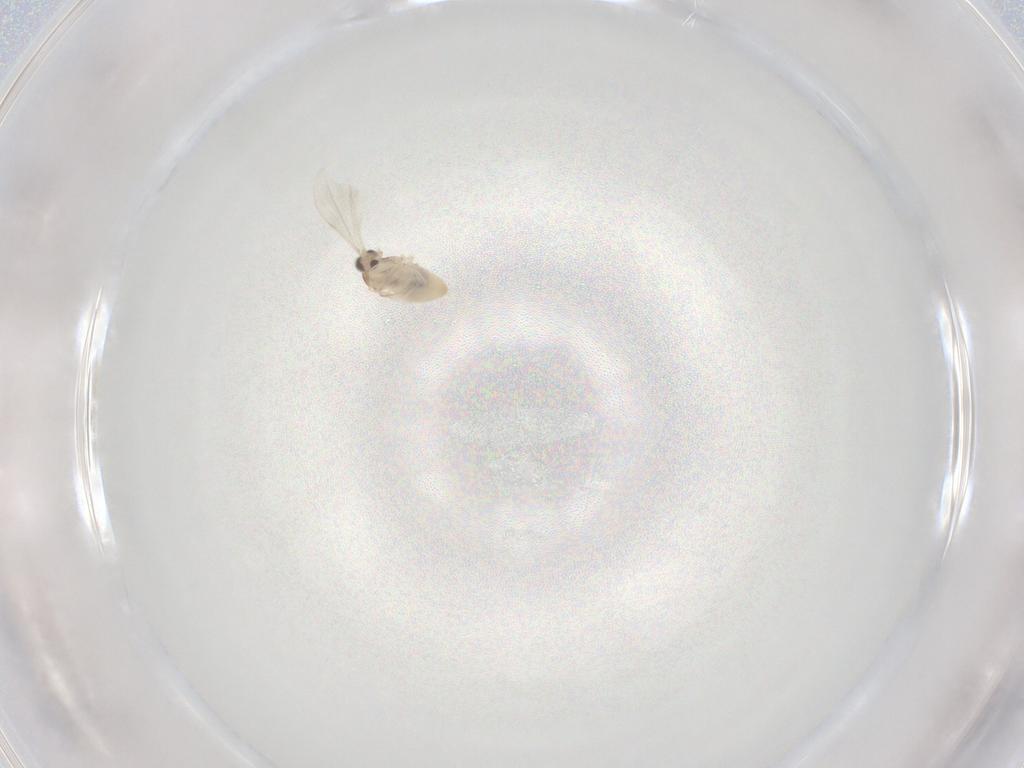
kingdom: Animalia
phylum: Arthropoda
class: Insecta
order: Diptera
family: Cecidomyiidae
